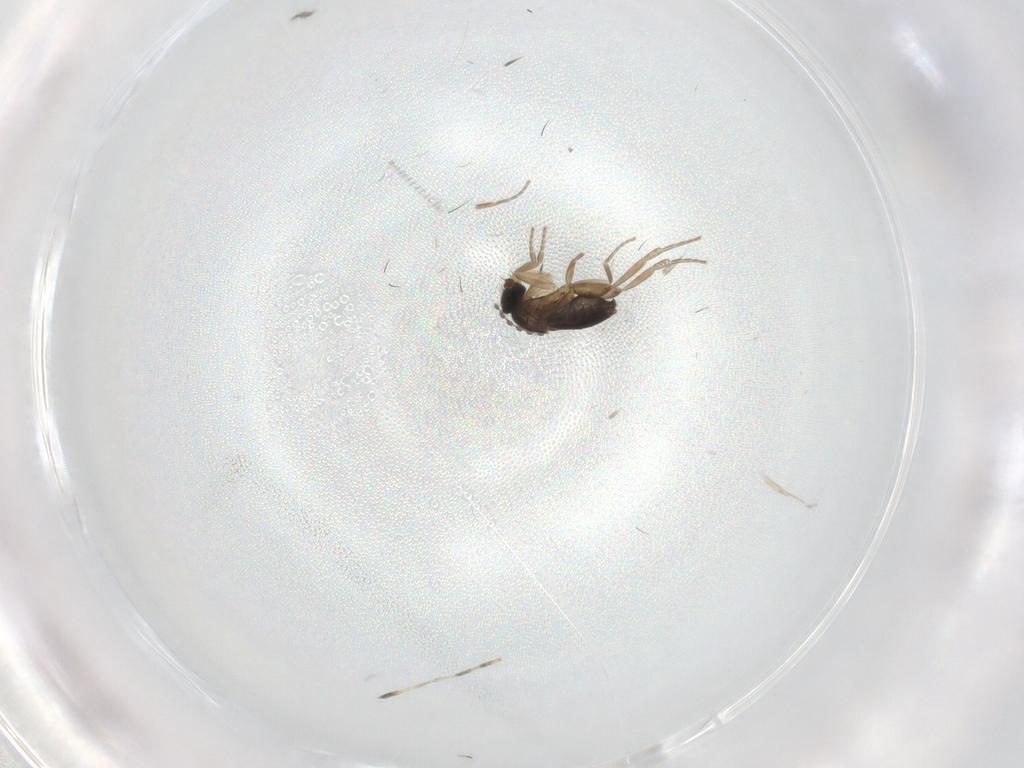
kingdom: Animalia
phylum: Arthropoda
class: Insecta
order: Diptera
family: Phoridae
